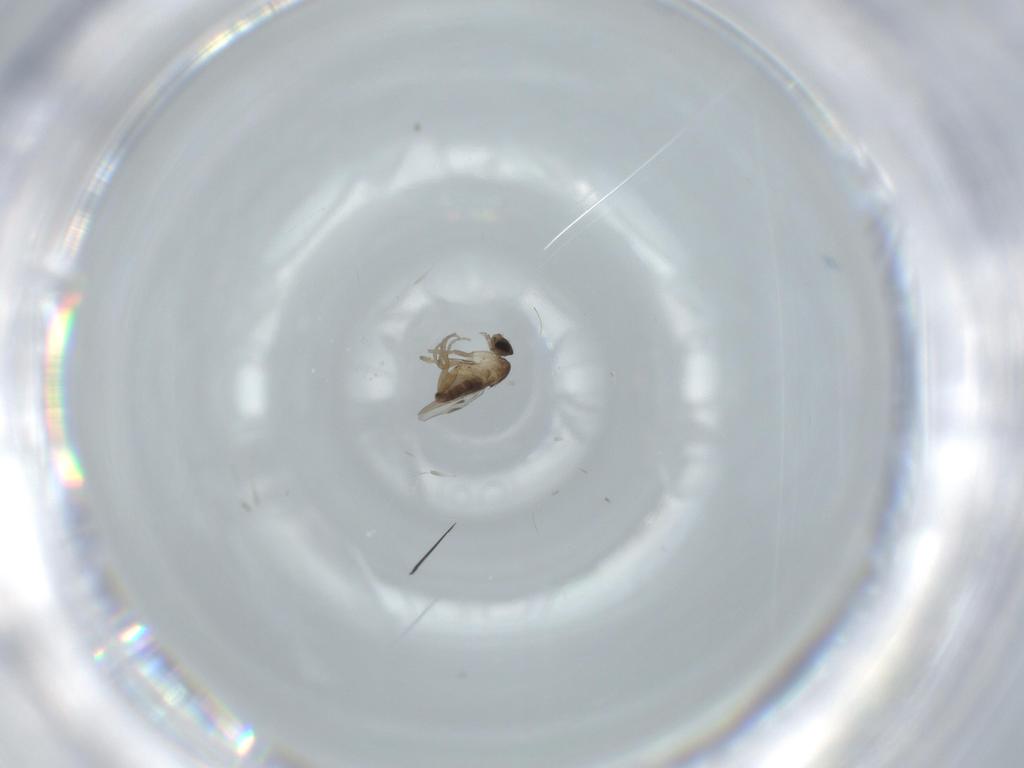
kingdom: Animalia
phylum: Arthropoda
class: Insecta
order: Diptera
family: Phoridae
